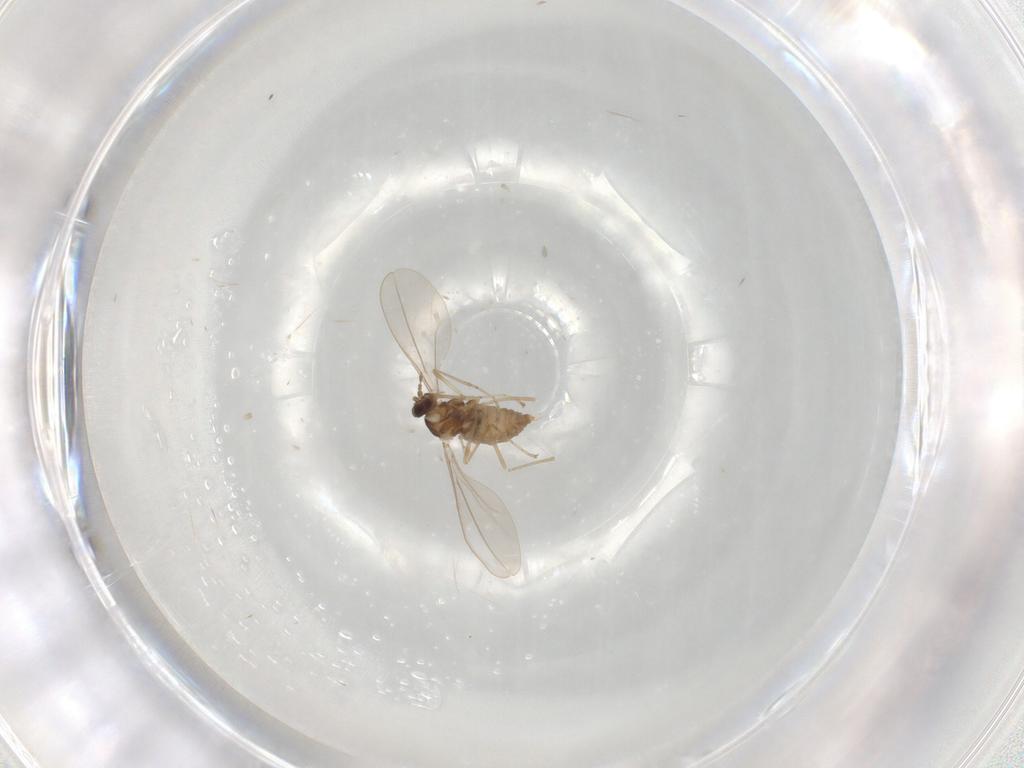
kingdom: Animalia
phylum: Arthropoda
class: Insecta
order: Diptera
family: Cecidomyiidae
